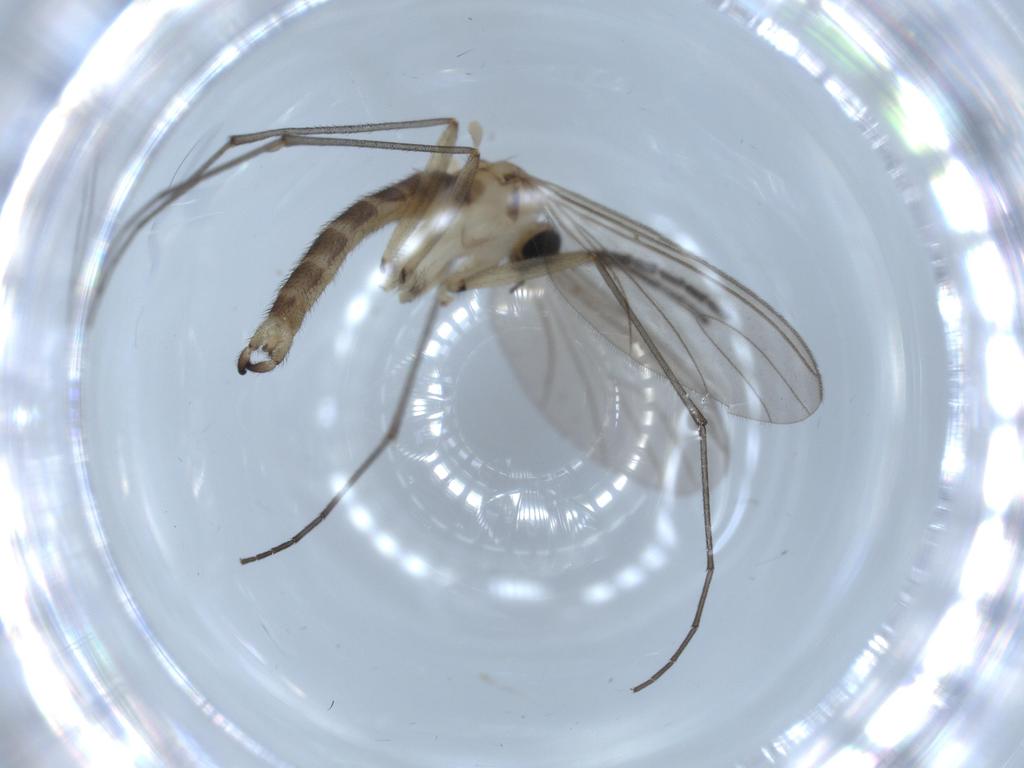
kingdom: Animalia
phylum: Arthropoda
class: Insecta
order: Diptera
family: Sciaridae
